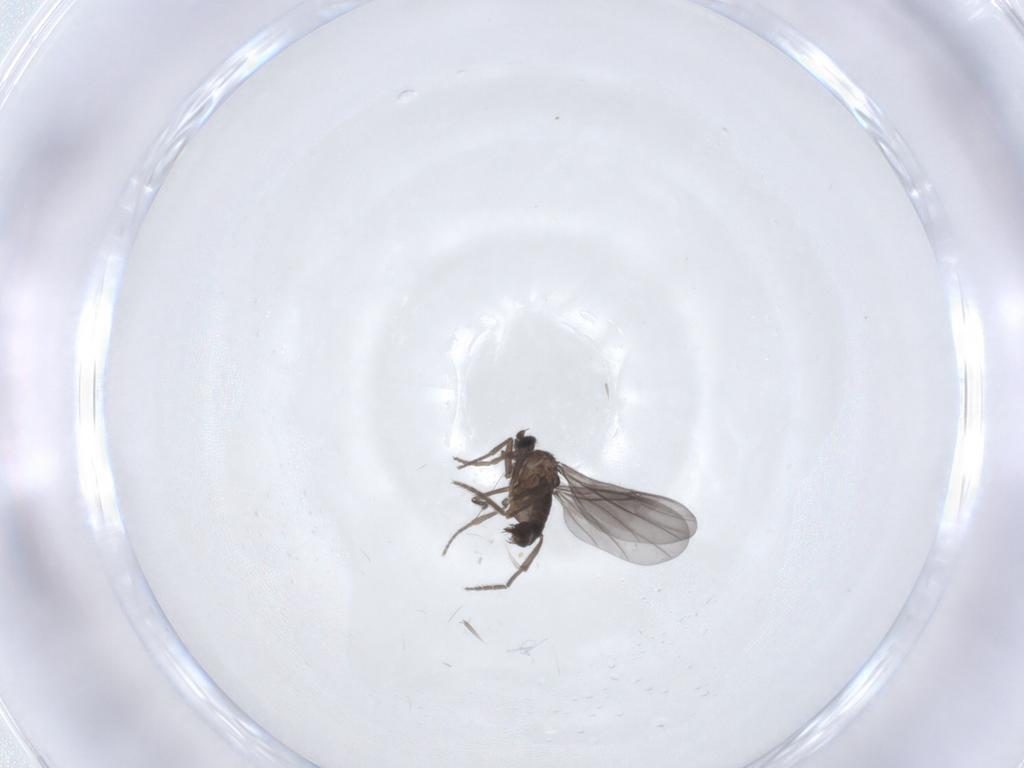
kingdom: Animalia
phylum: Arthropoda
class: Insecta
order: Diptera
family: Phoridae
